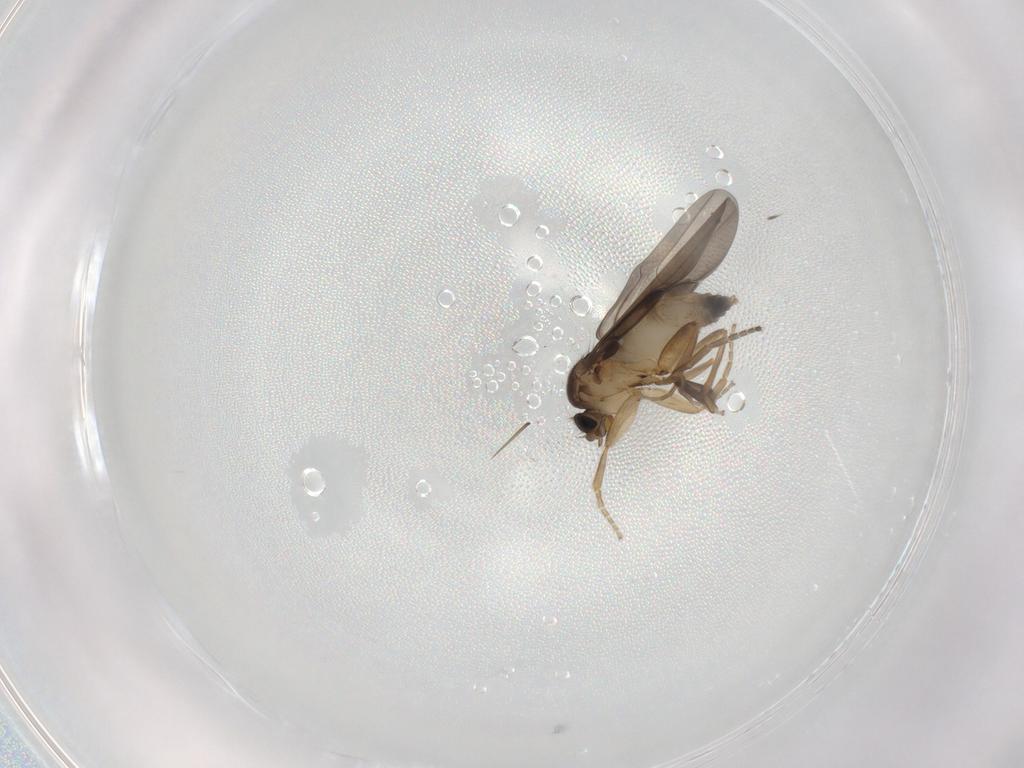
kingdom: Animalia
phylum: Arthropoda
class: Insecta
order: Diptera
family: Phoridae
